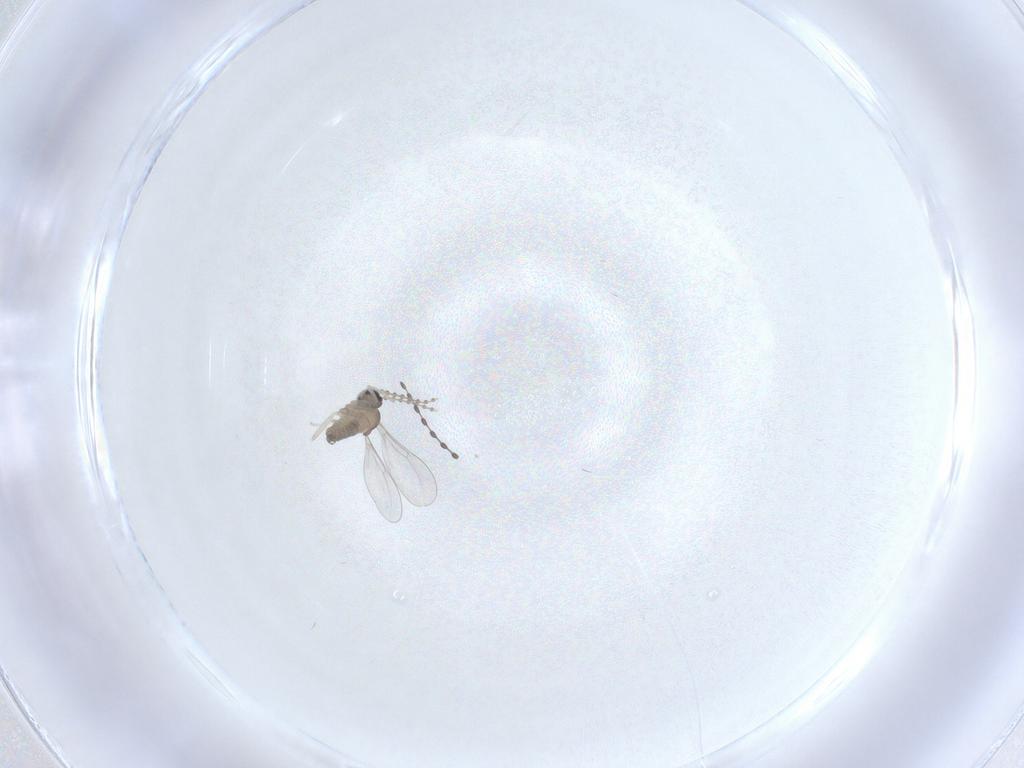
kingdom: Animalia
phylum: Arthropoda
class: Insecta
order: Diptera
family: Cecidomyiidae
